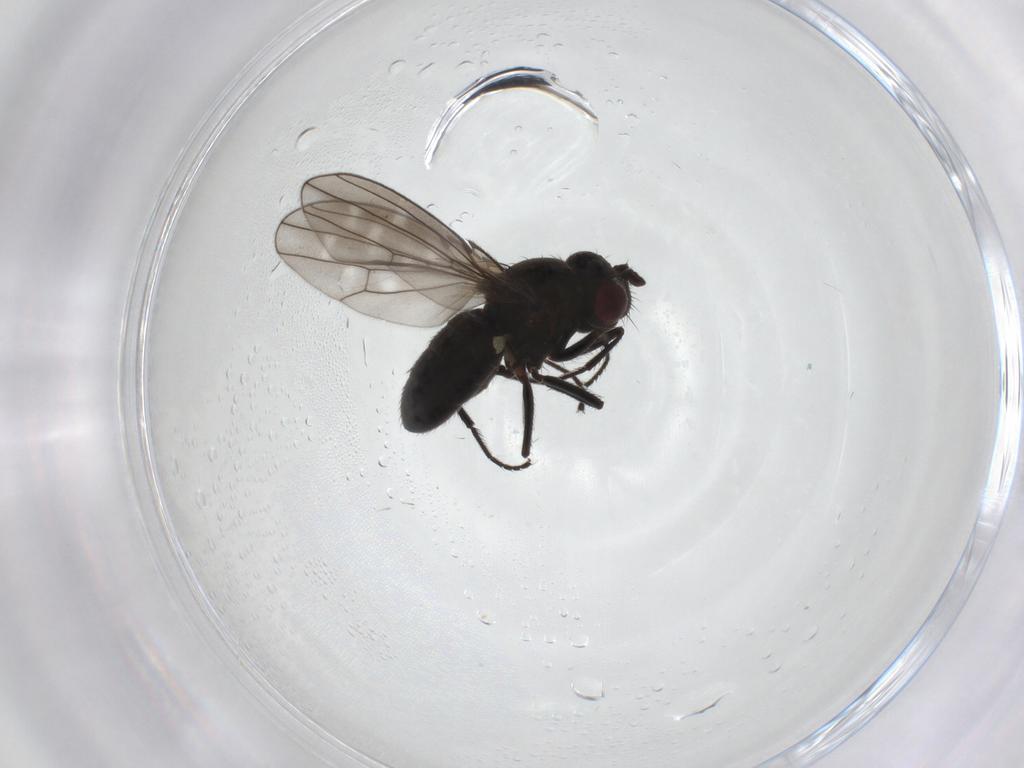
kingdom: Animalia
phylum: Arthropoda
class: Insecta
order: Diptera
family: Ephydridae
